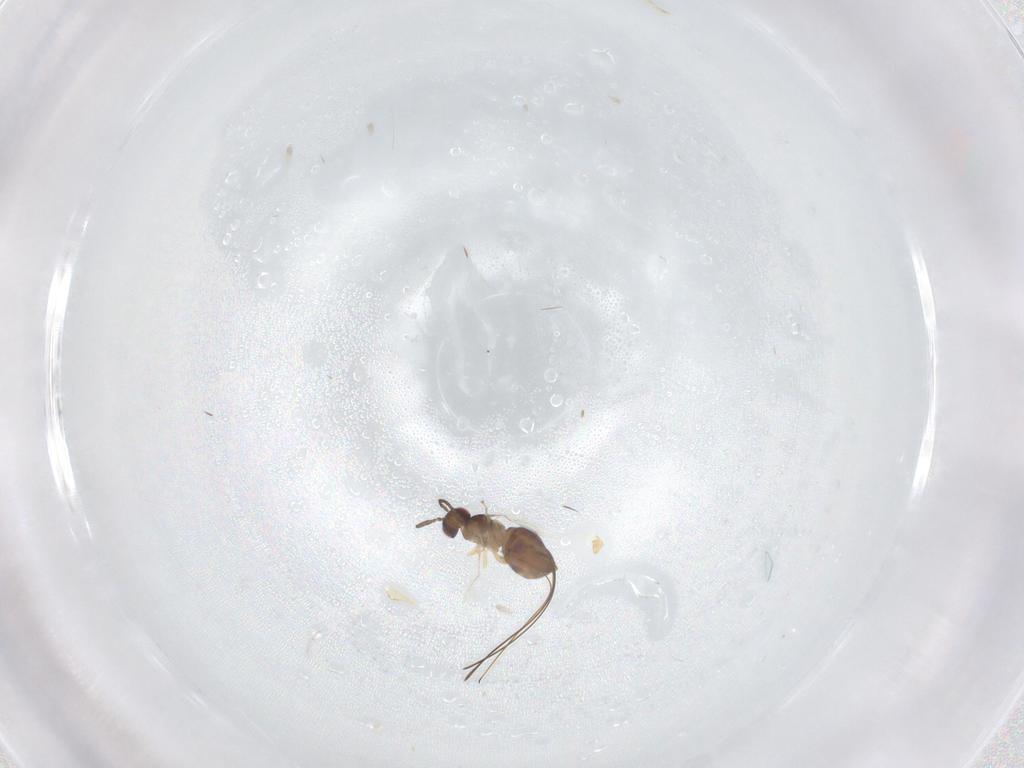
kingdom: Animalia
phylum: Arthropoda
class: Insecta
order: Hymenoptera
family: Pteromalidae
